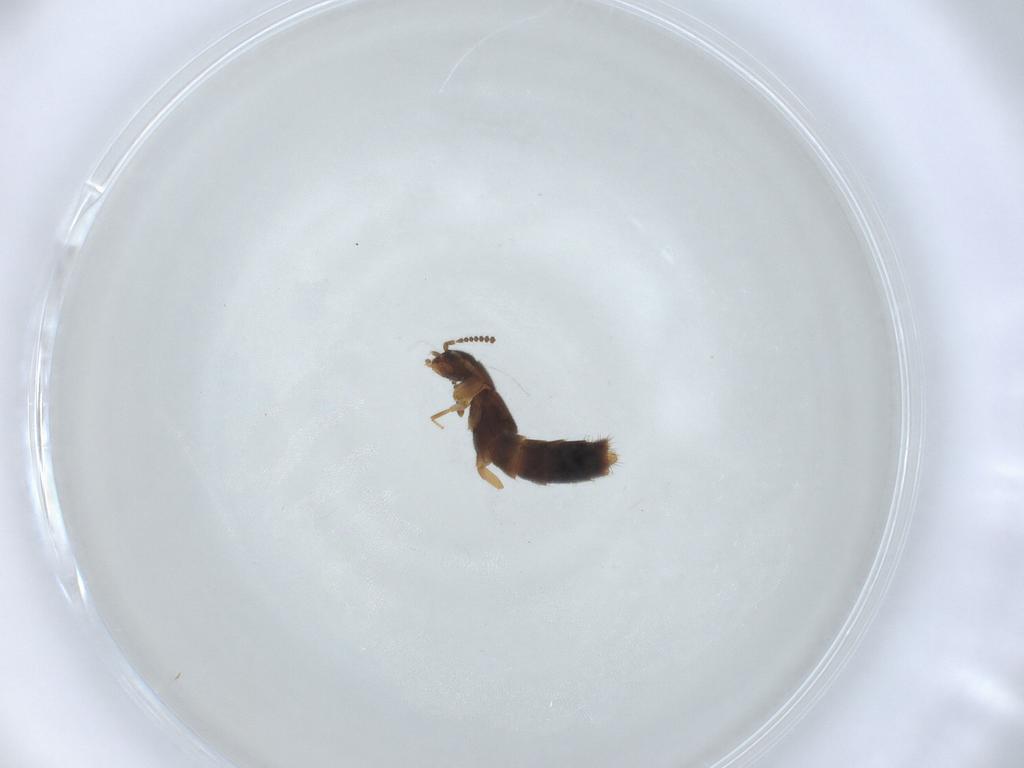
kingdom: Animalia
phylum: Arthropoda
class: Insecta
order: Coleoptera
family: Staphylinidae
